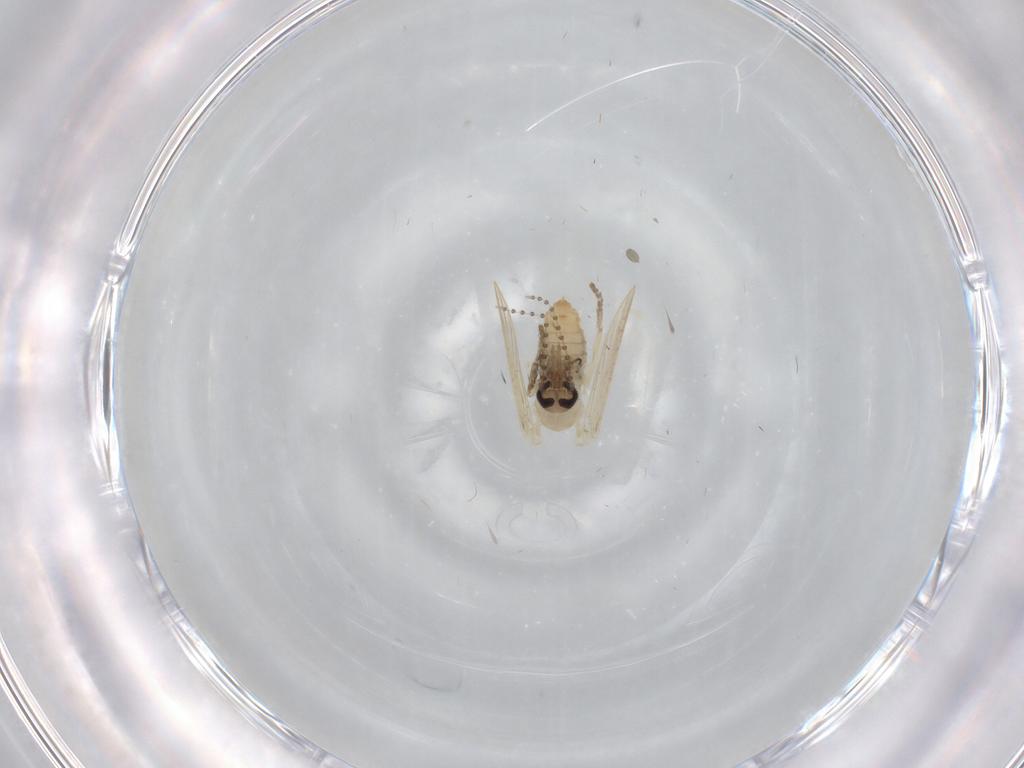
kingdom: Animalia
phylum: Arthropoda
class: Insecta
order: Diptera
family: Psychodidae
